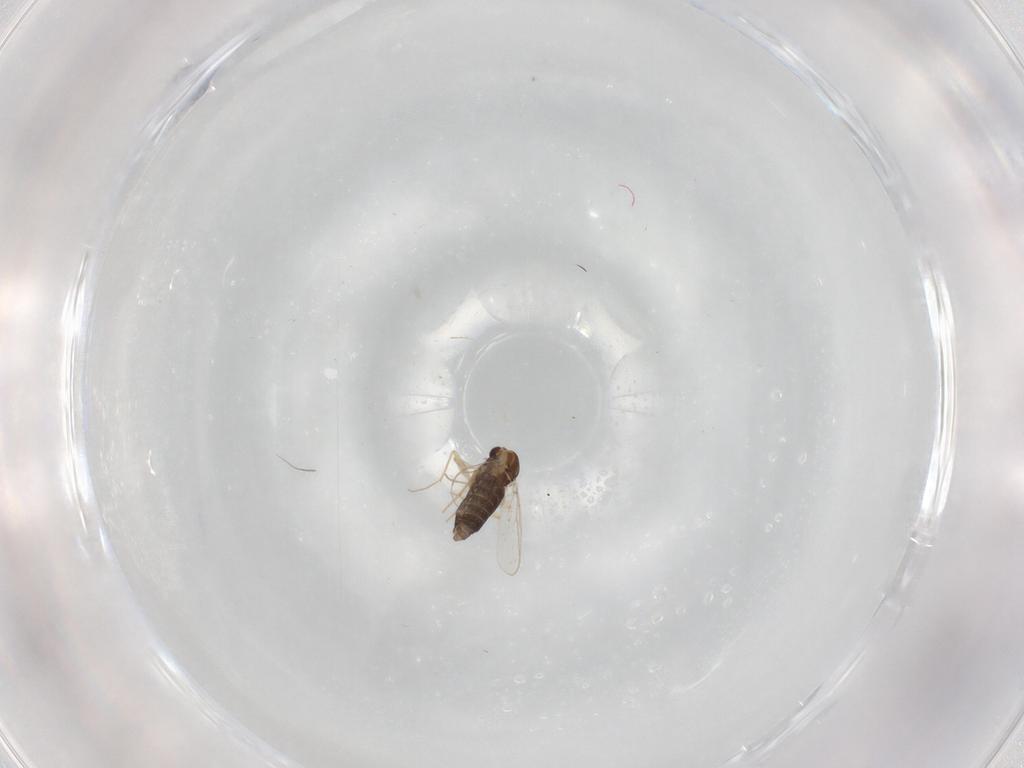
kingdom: Animalia
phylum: Arthropoda
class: Insecta
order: Diptera
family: Chironomidae
